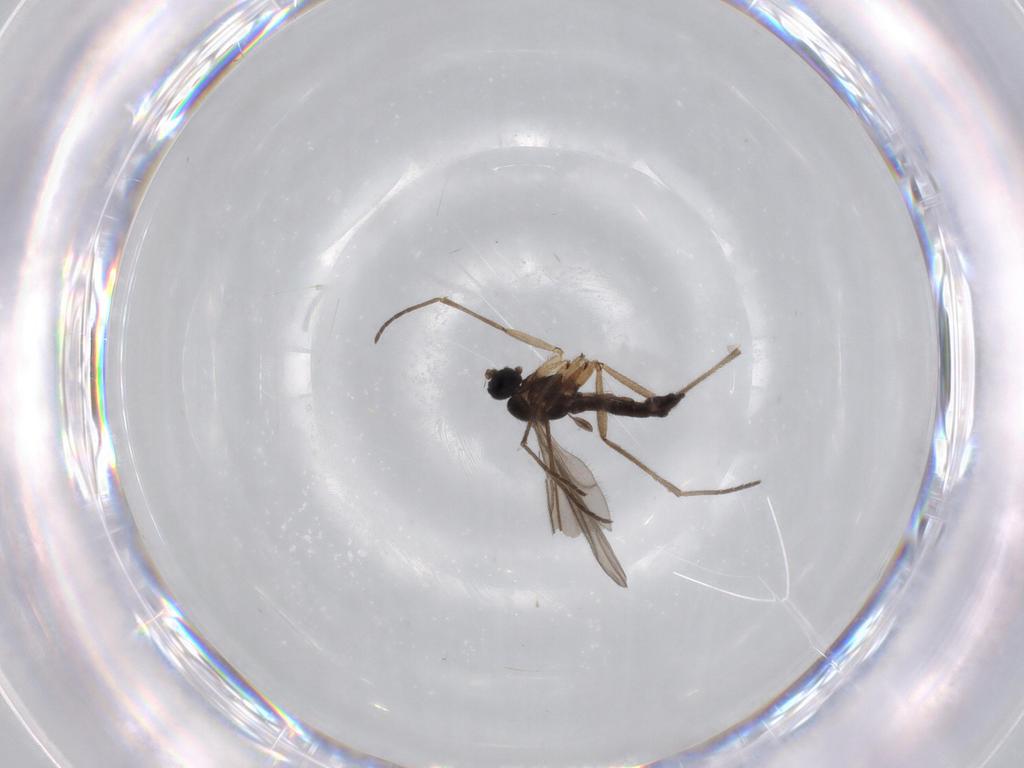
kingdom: Animalia
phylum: Arthropoda
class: Insecta
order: Diptera
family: Sciaridae
